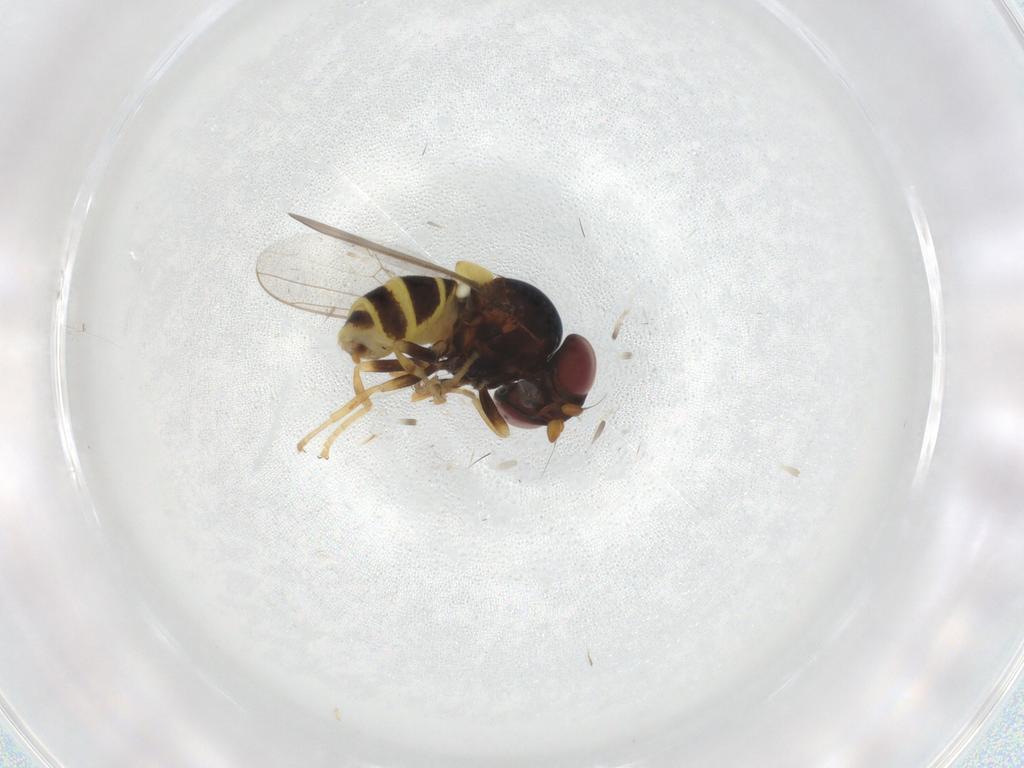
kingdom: Animalia
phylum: Arthropoda
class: Insecta
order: Diptera
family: Chloropidae
